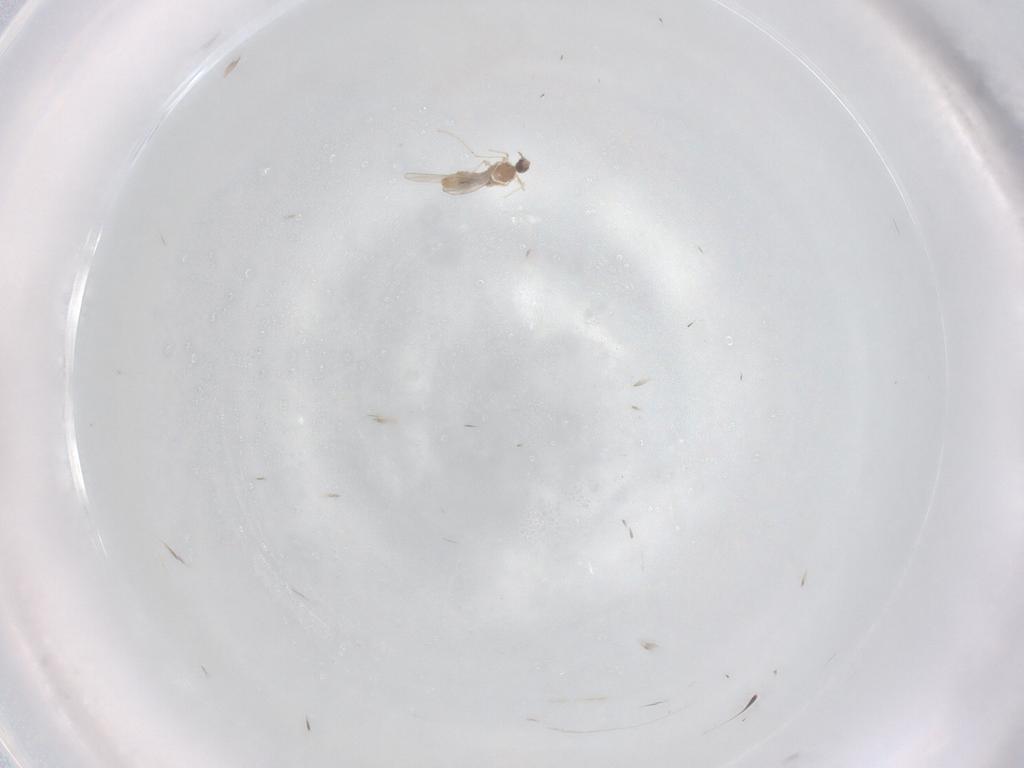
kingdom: Animalia
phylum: Arthropoda
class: Insecta
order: Diptera
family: Cecidomyiidae
